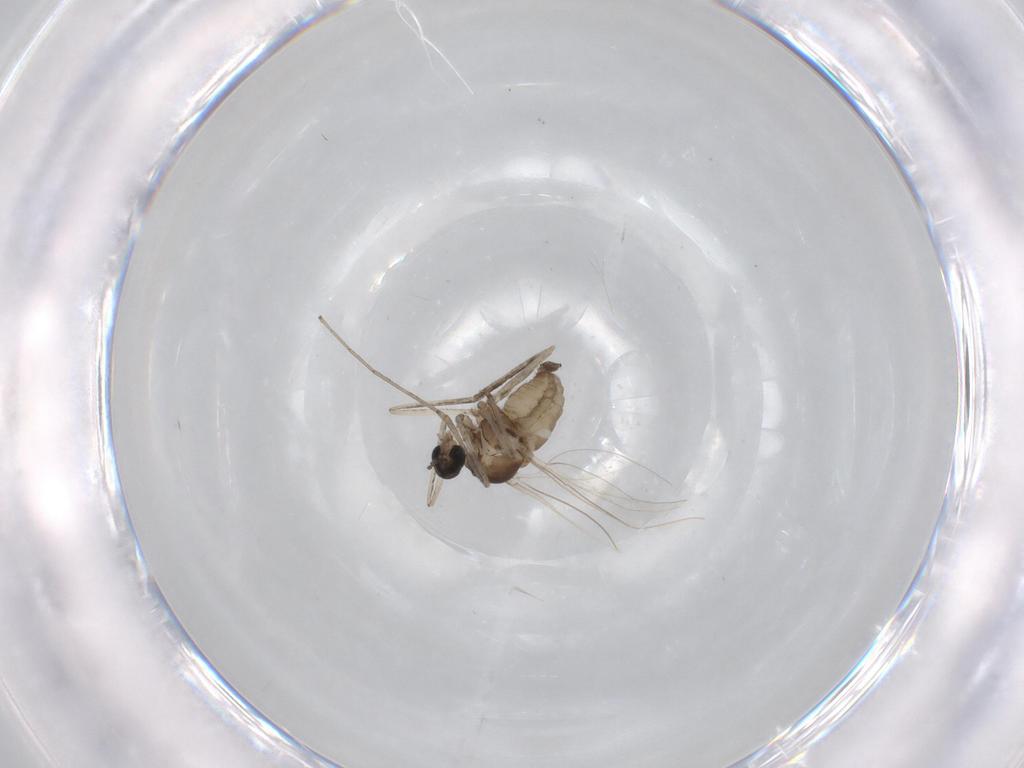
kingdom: Animalia
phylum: Arthropoda
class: Insecta
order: Diptera
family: Cecidomyiidae
